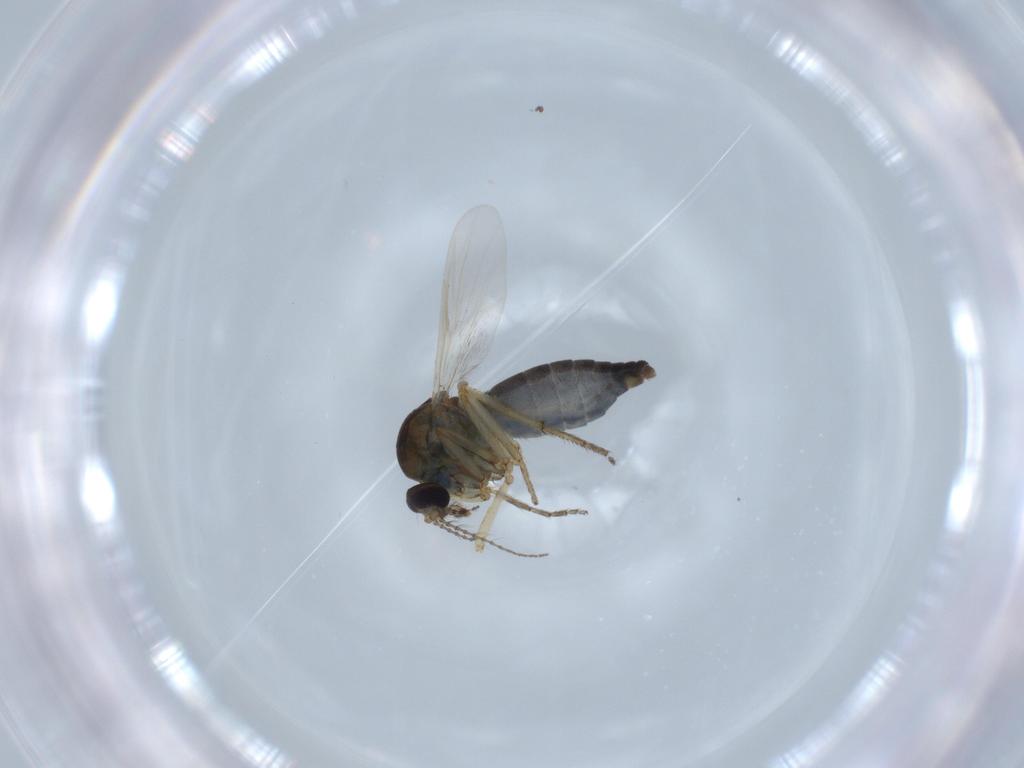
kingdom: Animalia
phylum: Arthropoda
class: Insecta
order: Diptera
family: Ceratopogonidae
